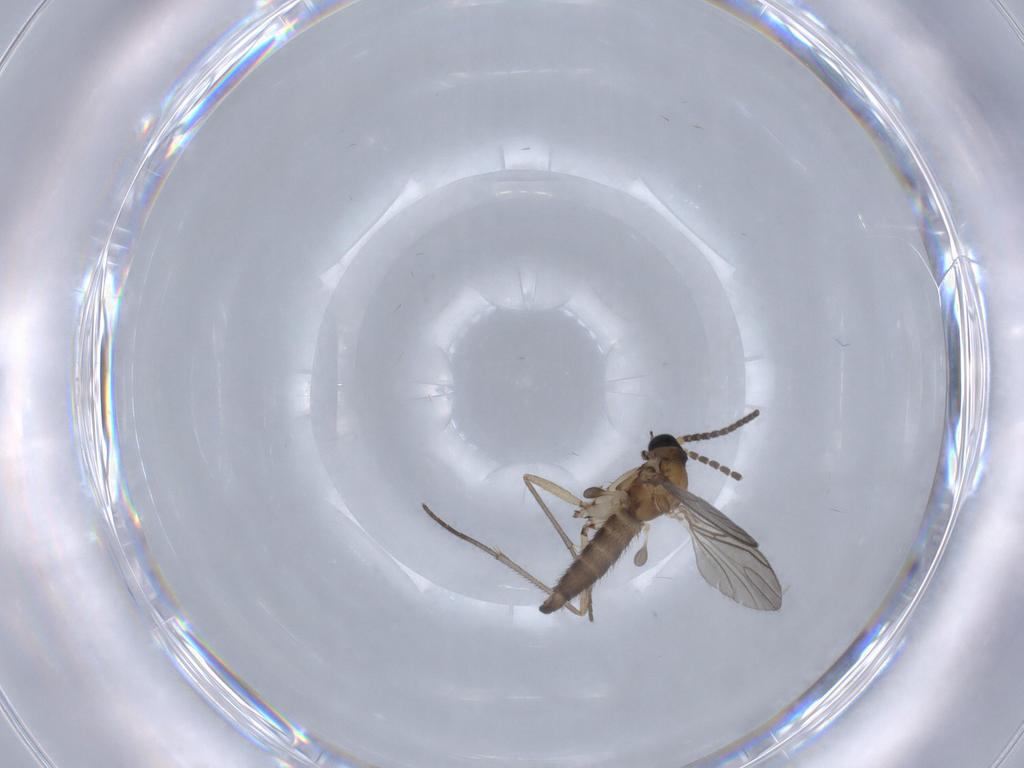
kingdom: Animalia
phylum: Arthropoda
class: Insecta
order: Diptera
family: Sciaridae
